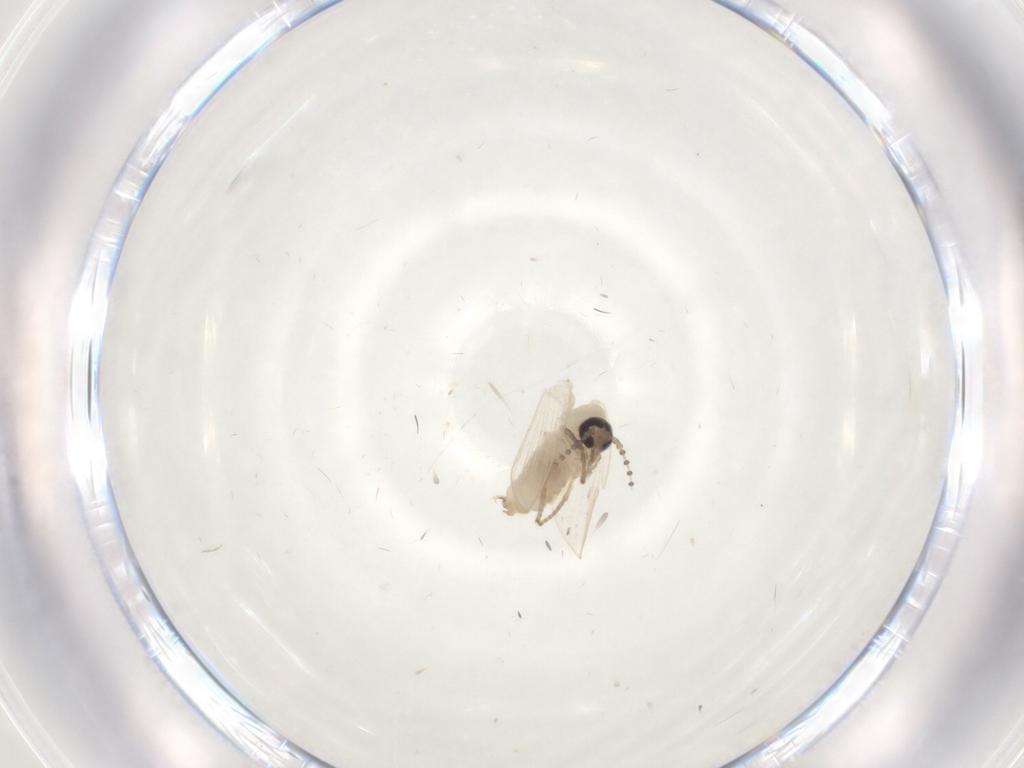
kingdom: Animalia
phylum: Arthropoda
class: Insecta
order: Diptera
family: Psychodidae
